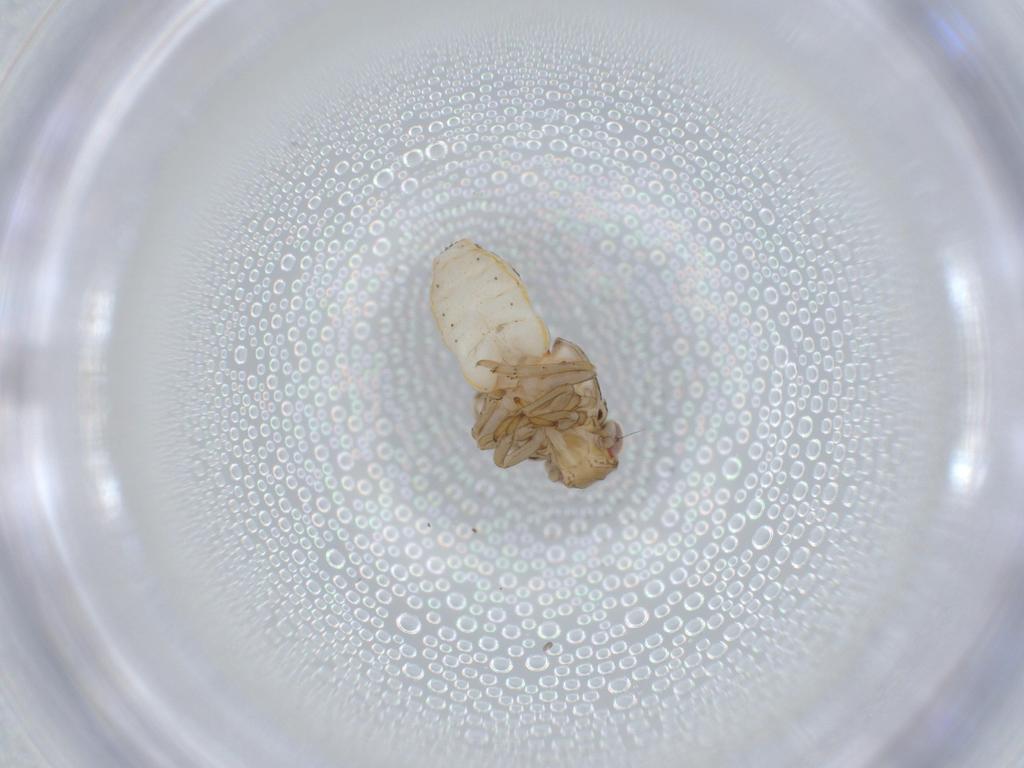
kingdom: Animalia
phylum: Arthropoda
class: Insecta
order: Hemiptera
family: Issidae
